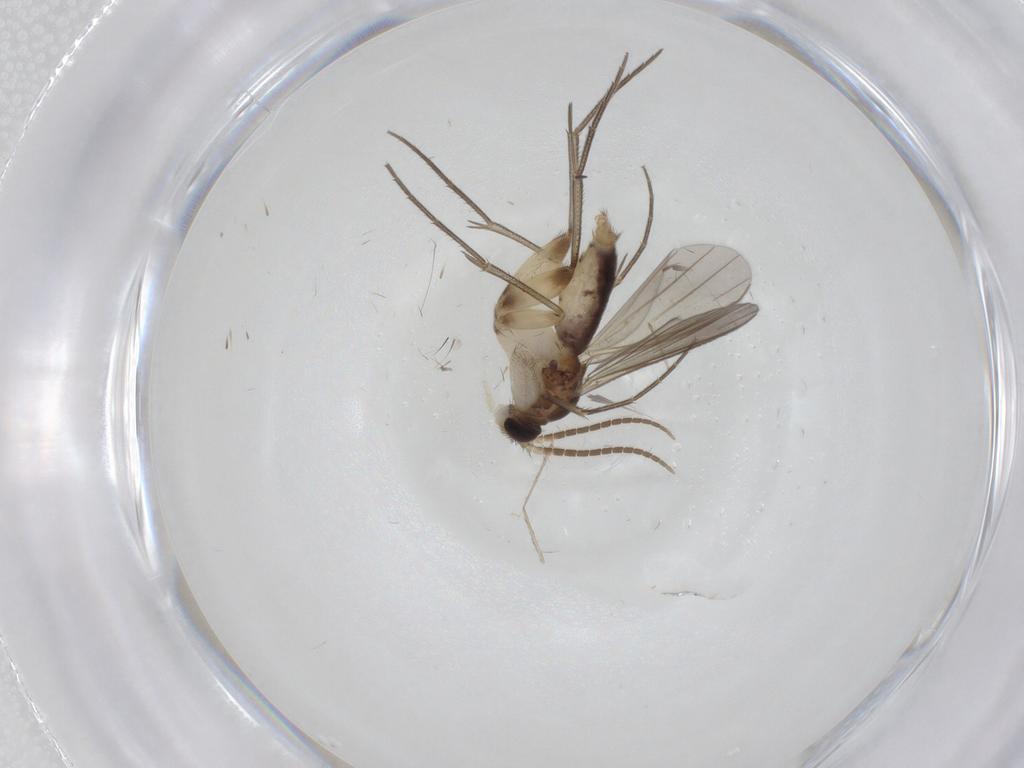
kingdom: Animalia
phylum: Arthropoda
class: Insecta
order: Diptera
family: Mycetophilidae
